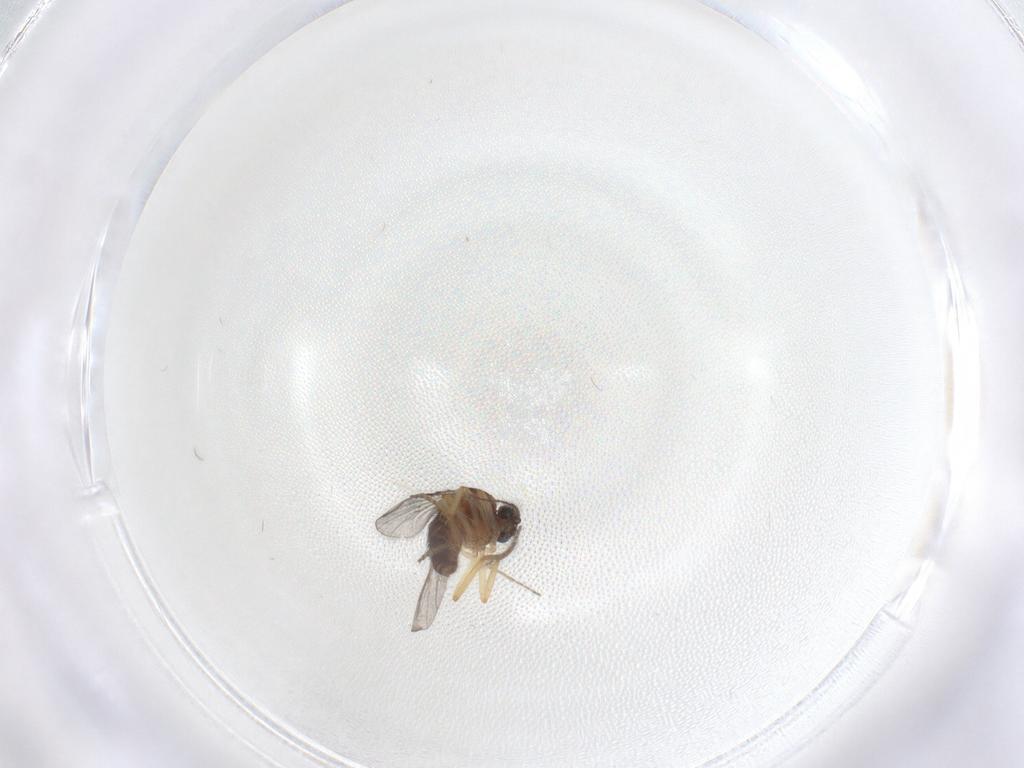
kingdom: Animalia
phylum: Arthropoda
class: Insecta
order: Diptera
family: Ceratopogonidae
